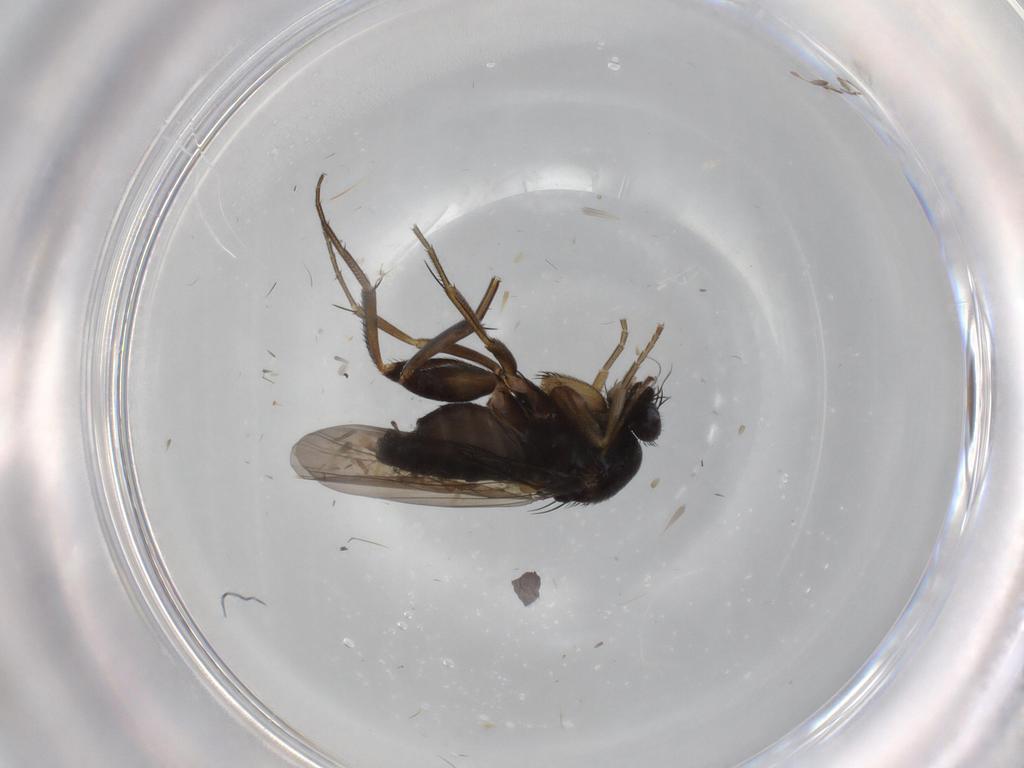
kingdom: Animalia
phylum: Arthropoda
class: Insecta
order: Diptera
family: Phoridae
